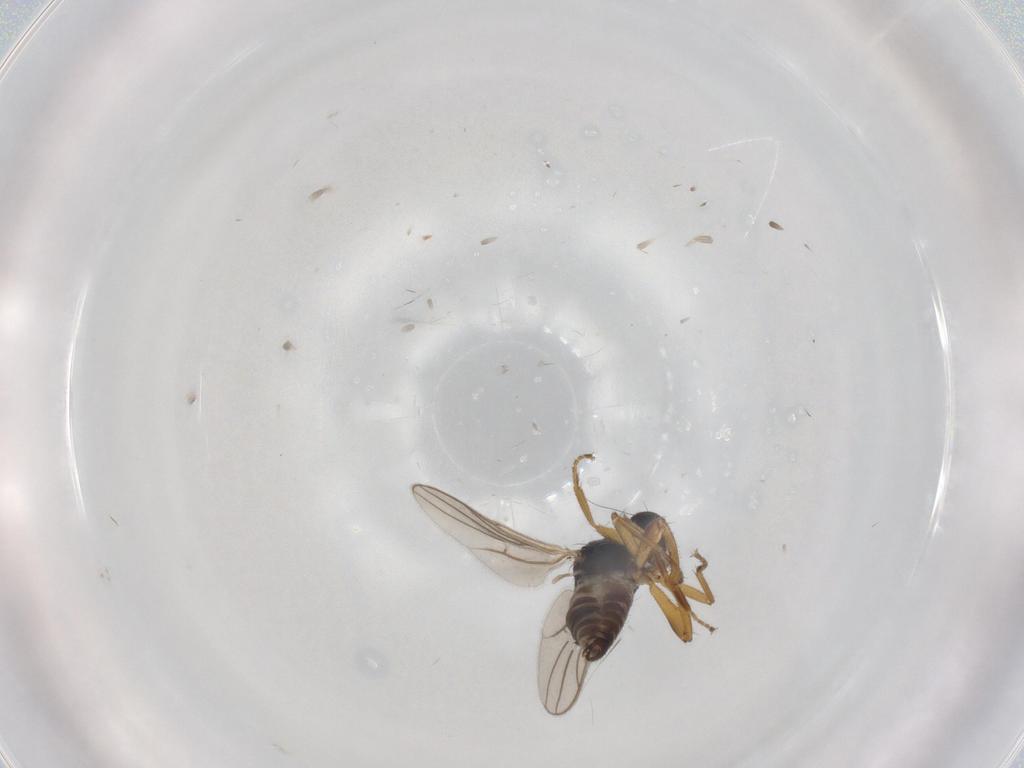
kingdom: Animalia
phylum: Arthropoda
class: Insecta
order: Diptera
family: Hybotidae
